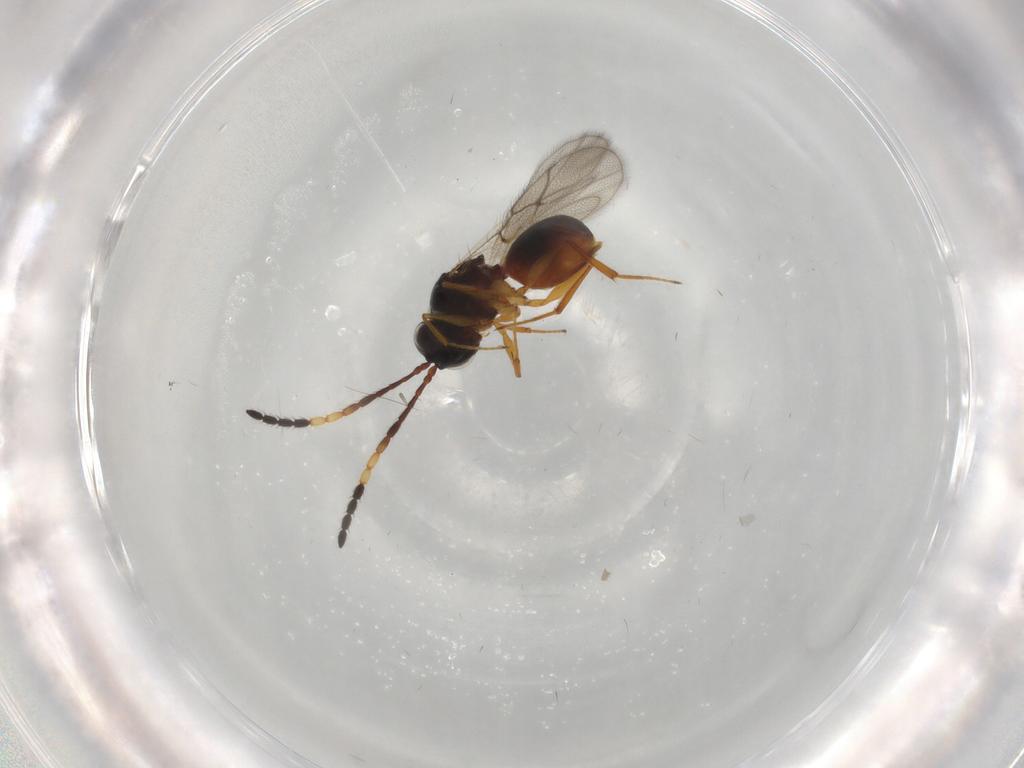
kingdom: Animalia
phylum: Arthropoda
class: Insecta
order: Hymenoptera
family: Figitidae
